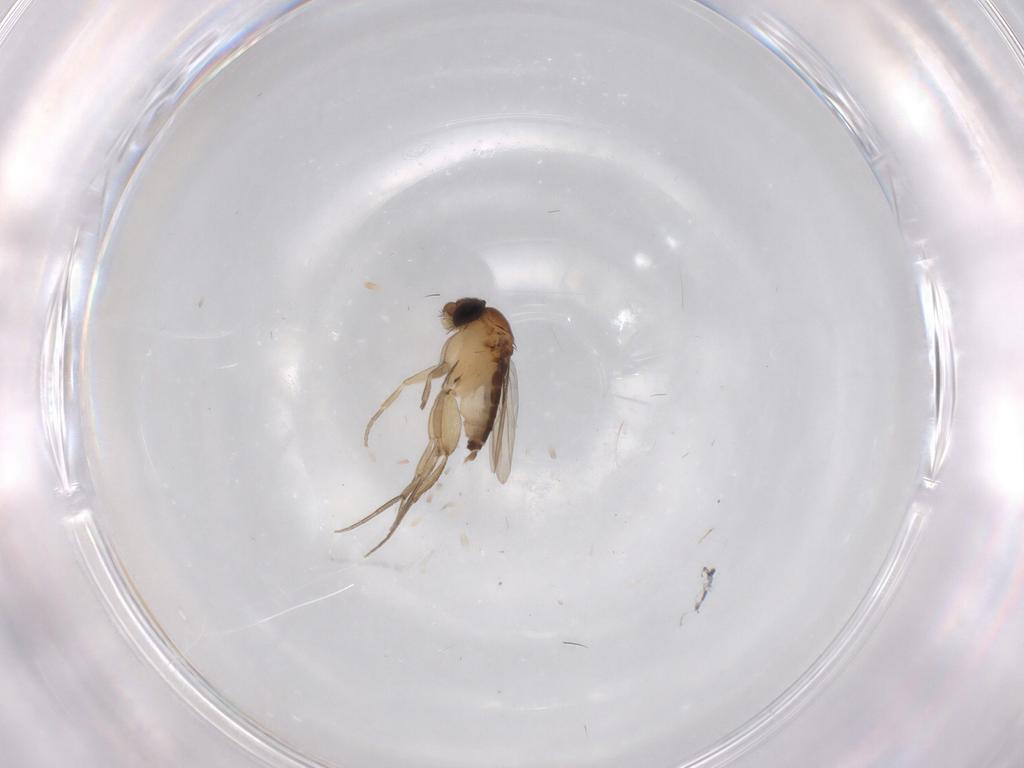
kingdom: Animalia
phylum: Arthropoda
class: Insecta
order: Diptera
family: Phoridae
